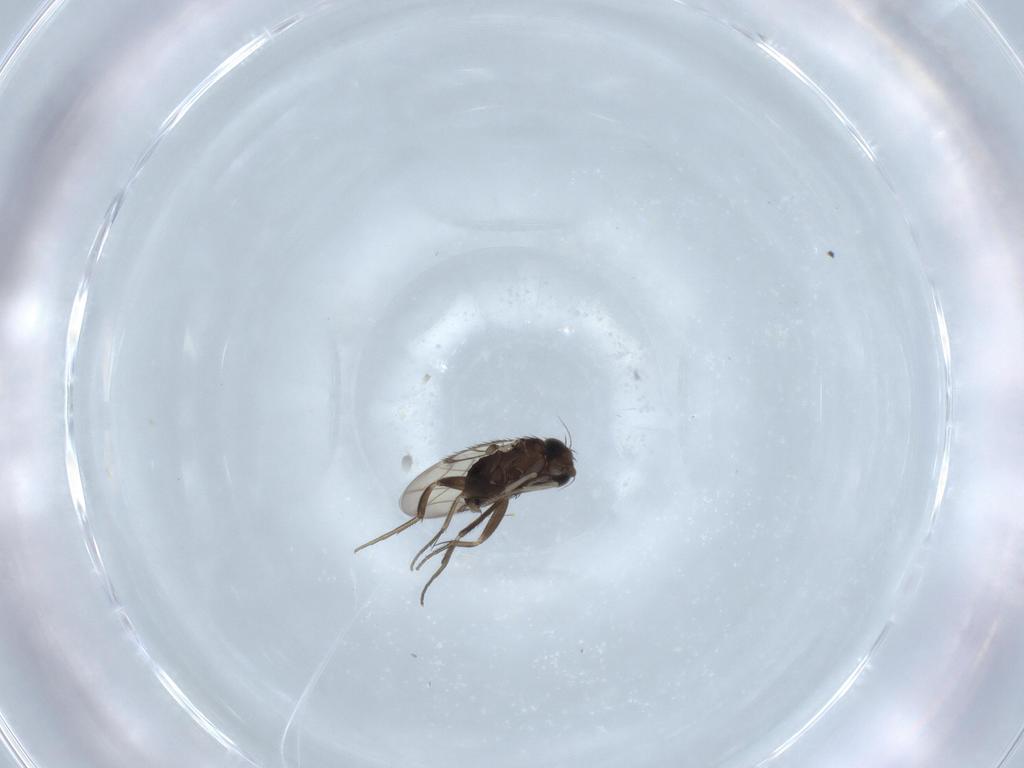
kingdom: Animalia
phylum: Arthropoda
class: Insecta
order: Diptera
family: Phoridae
